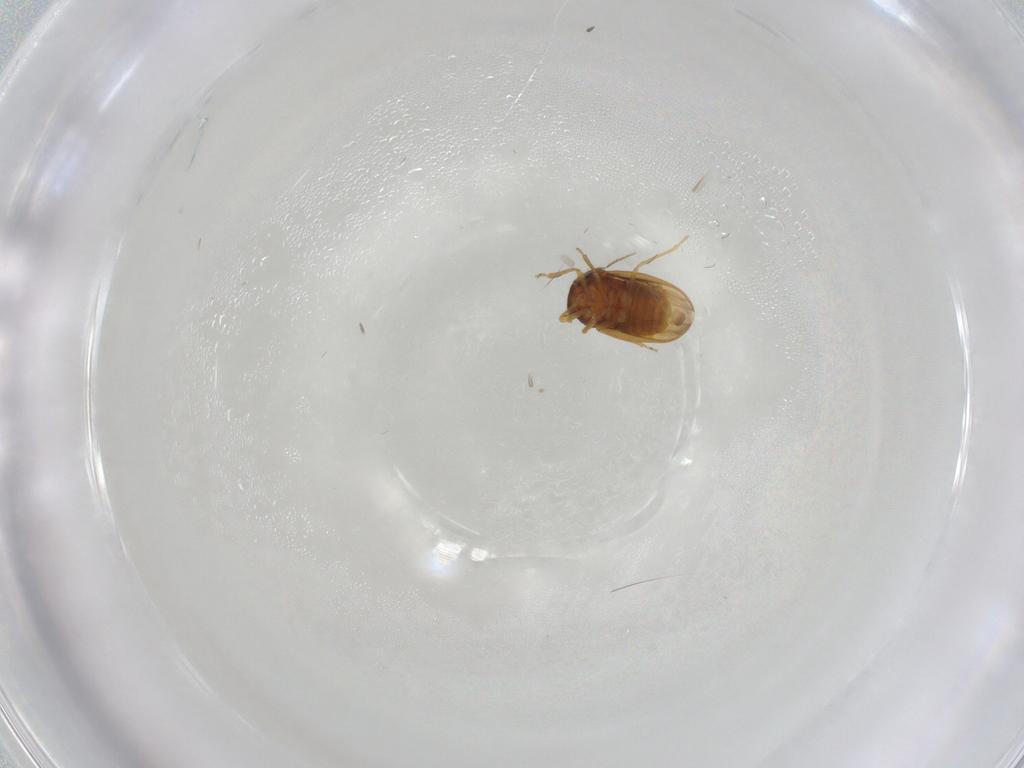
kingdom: Animalia
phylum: Arthropoda
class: Insecta
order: Hemiptera
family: Schizopteridae
